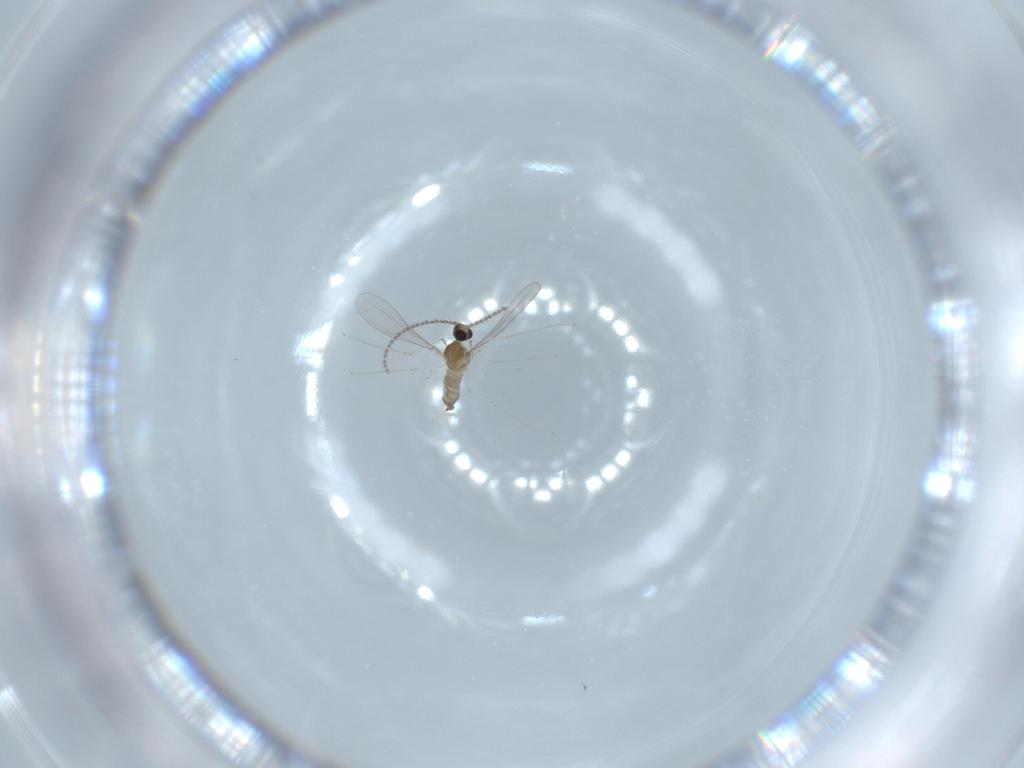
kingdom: Animalia
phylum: Arthropoda
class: Insecta
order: Diptera
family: Cecidomyiidae
